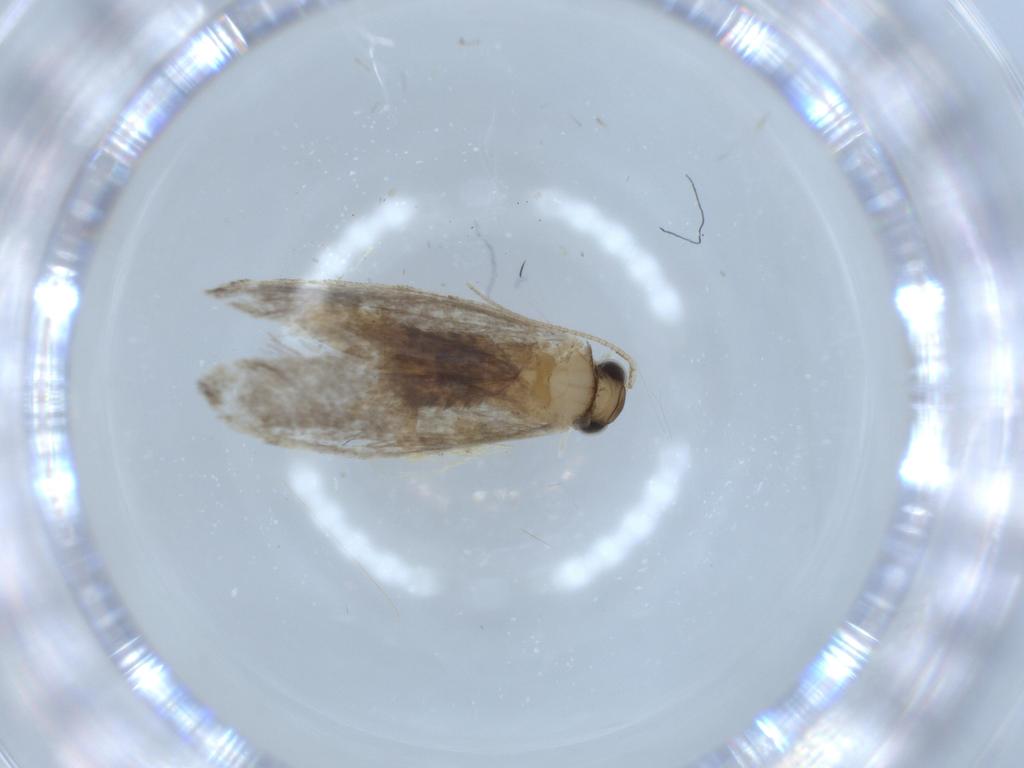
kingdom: Animalia
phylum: Arthropoda
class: Insecta
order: Lepidoptera
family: Tineidae
